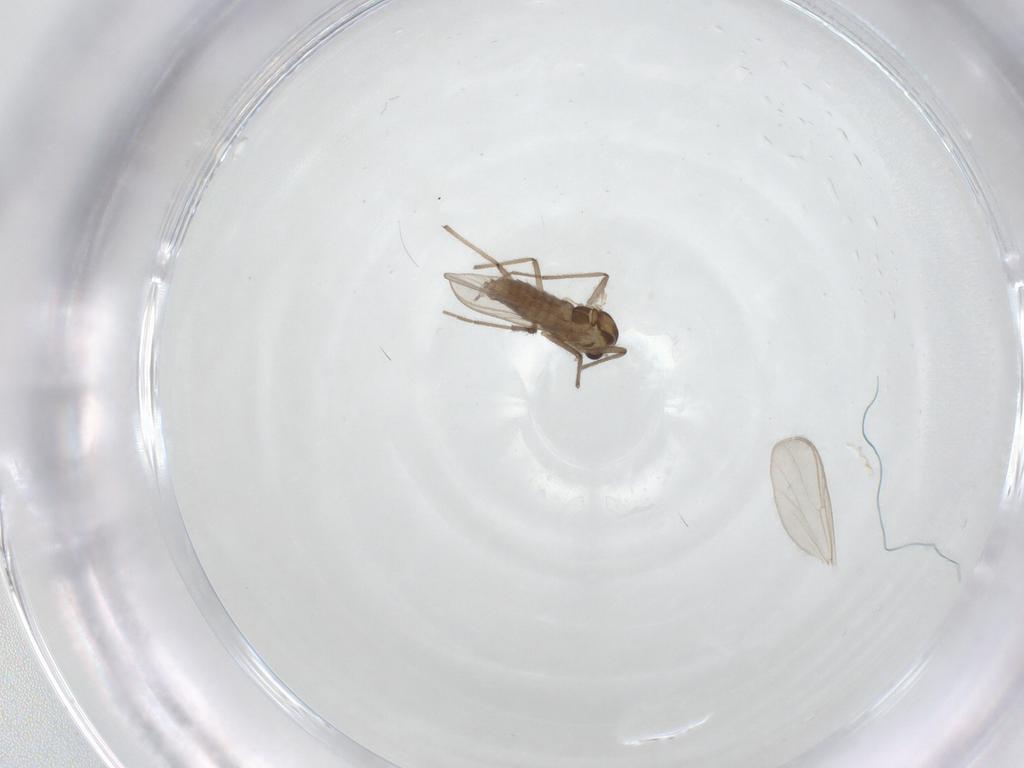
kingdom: Animalia
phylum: Arthropoda
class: Insecta
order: Diptera
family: Chironomidae
